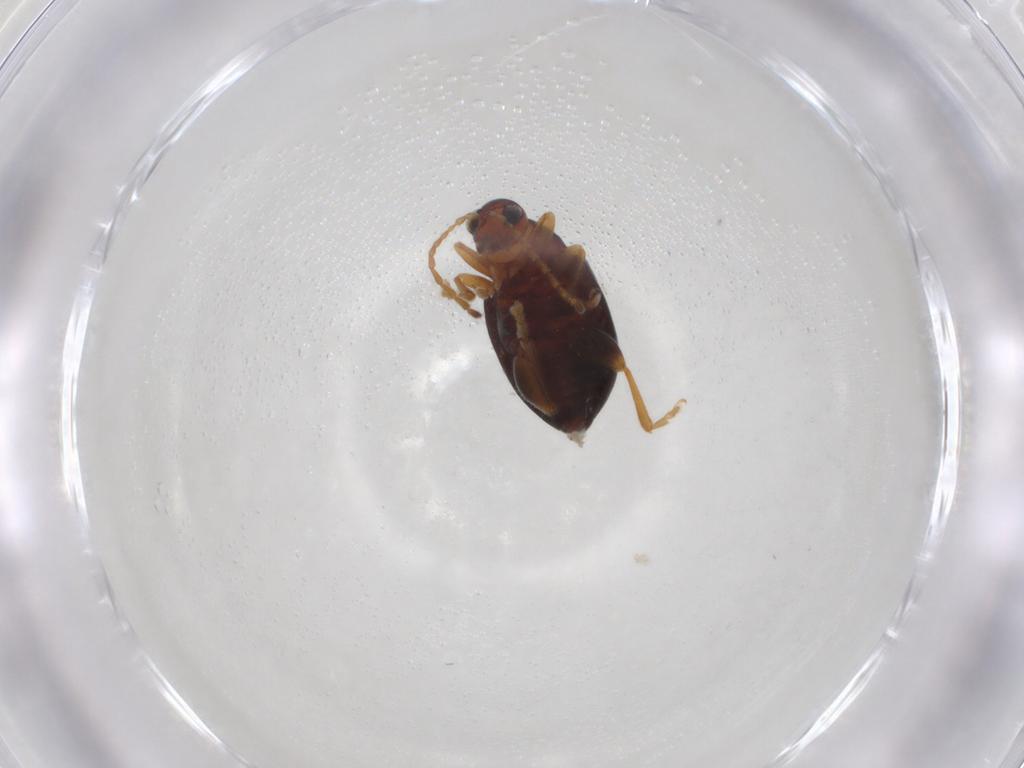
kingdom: Animalia
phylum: Arthropoda
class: Insecta
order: Coleoptera
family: Chrysomelidae
